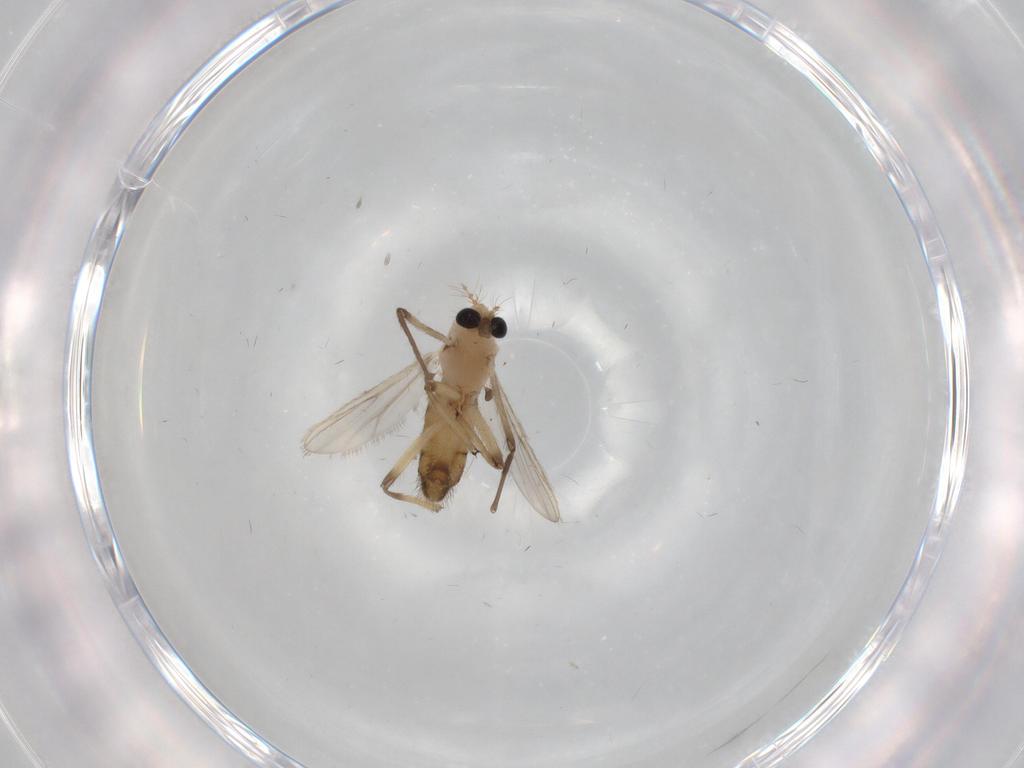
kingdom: Animalia
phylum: Arthropoda
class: Insecta
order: Diptera
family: Chironomidae
